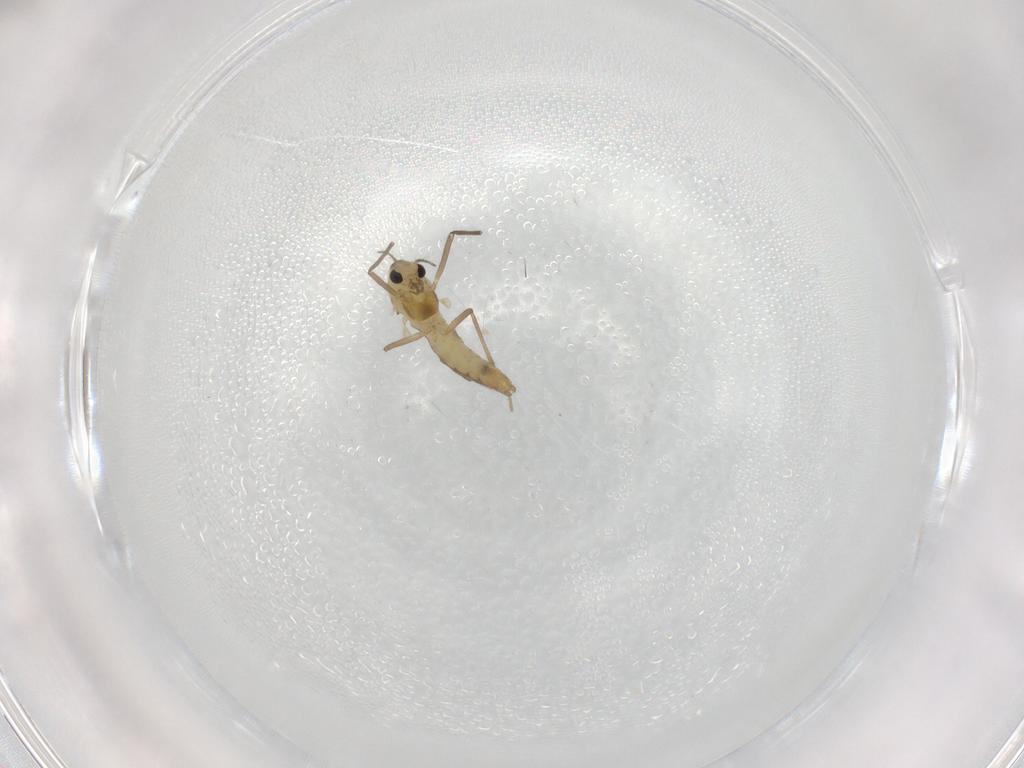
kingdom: Animalia
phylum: Arthropoda
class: Insecta
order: Diptera
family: Chironomidae
